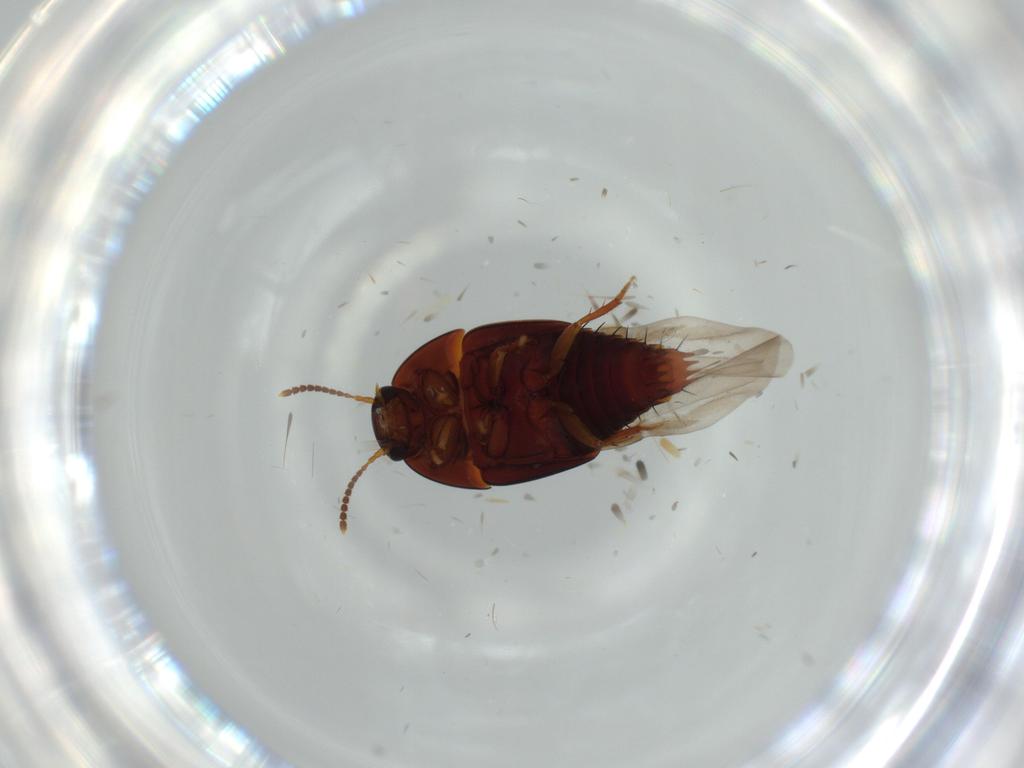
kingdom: Animalia
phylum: Arthropoda
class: Insecta
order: Coleoptera
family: Staphylinidae
